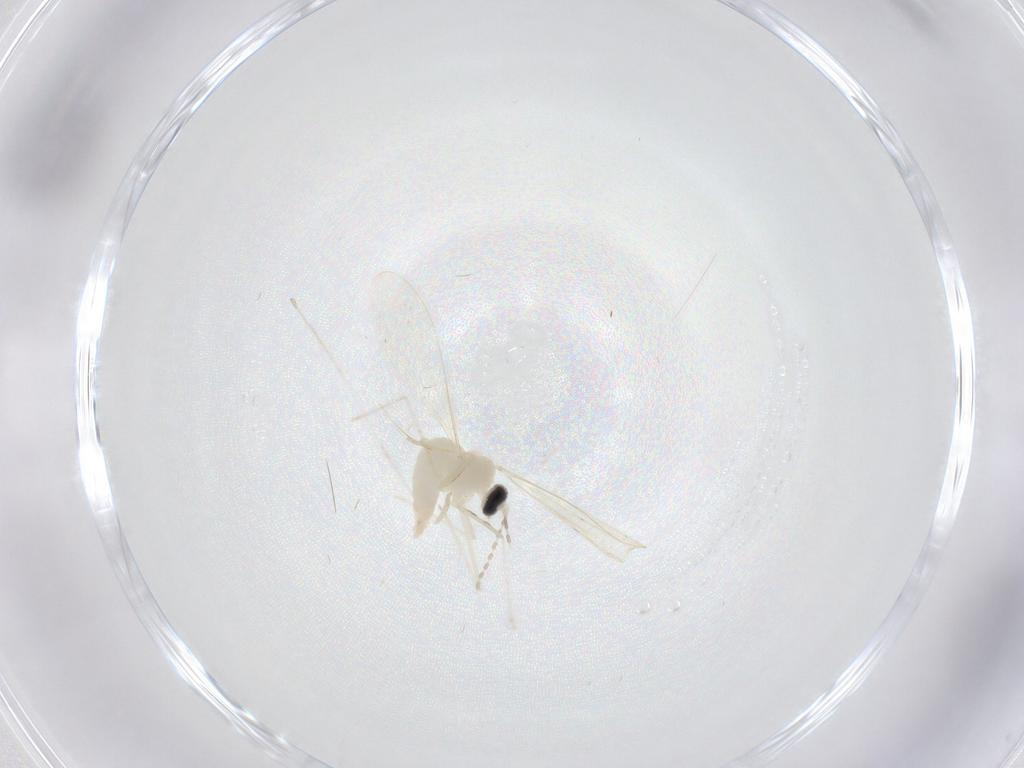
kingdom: Animalia
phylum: Arthropoda
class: Insecta
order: Diptera
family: Cecidomyiidae
